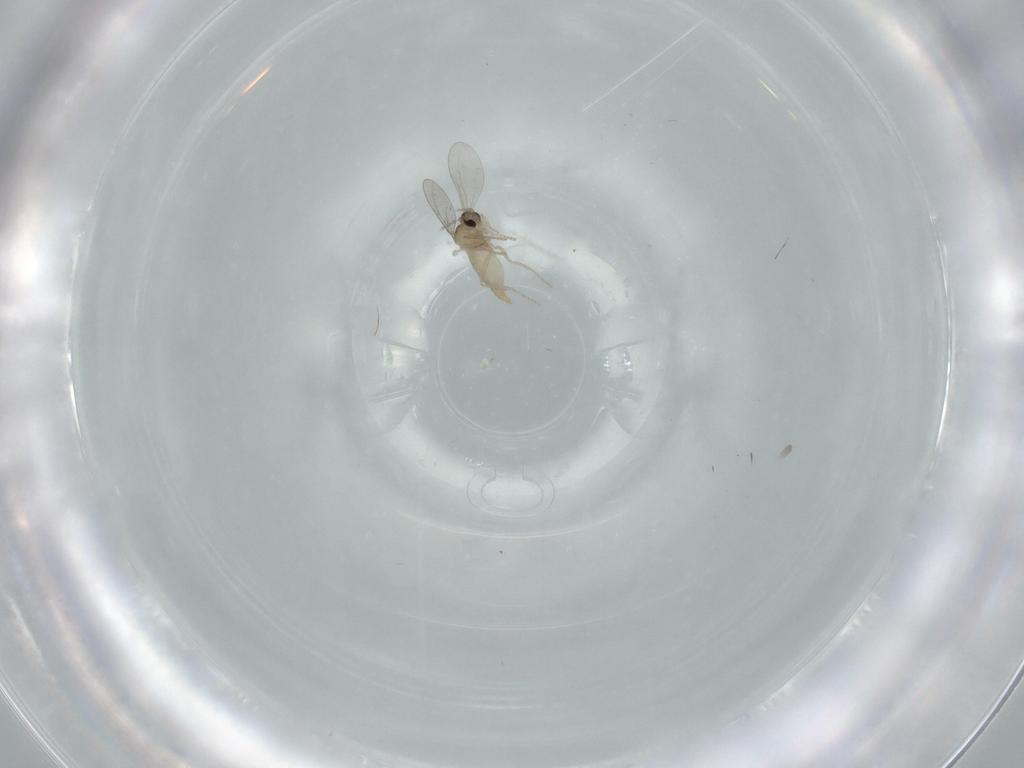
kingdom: Animalia
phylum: Arthropoda
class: Insecta
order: Diptera
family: Cecidomyiidae
